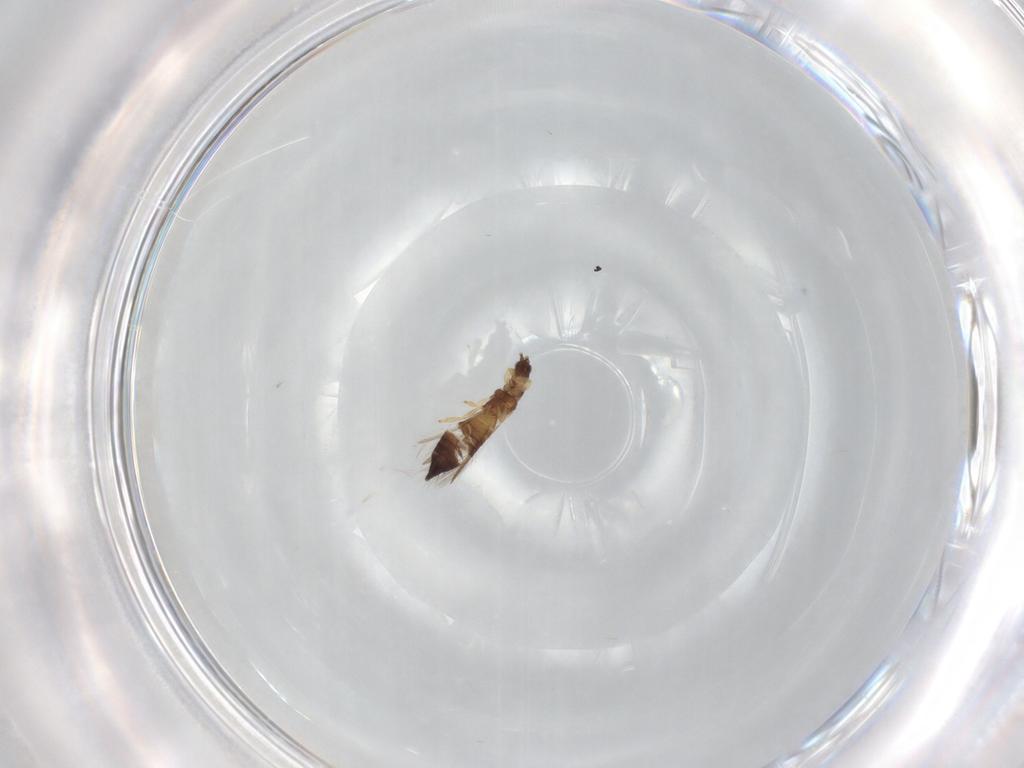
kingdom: Animalia
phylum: Arthropoda
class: Insecta
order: Thysanoptera
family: Thripidae
